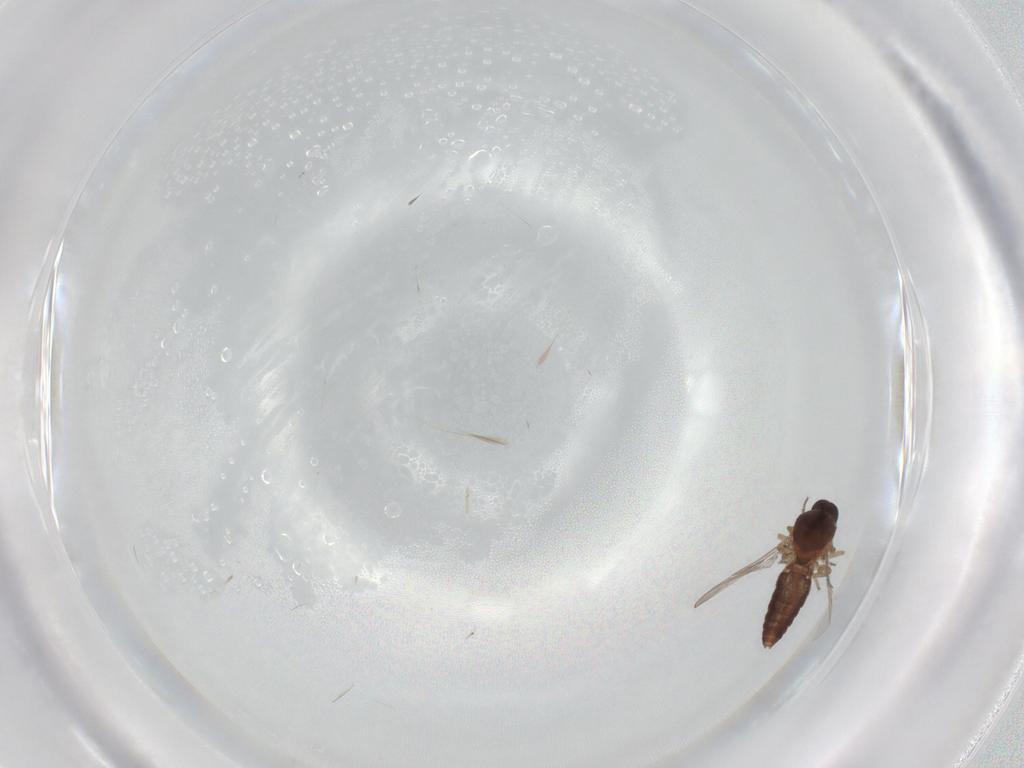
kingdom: Animalia
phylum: Arthropoda
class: Insecta
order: Diptera
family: Ceratopogonidae
